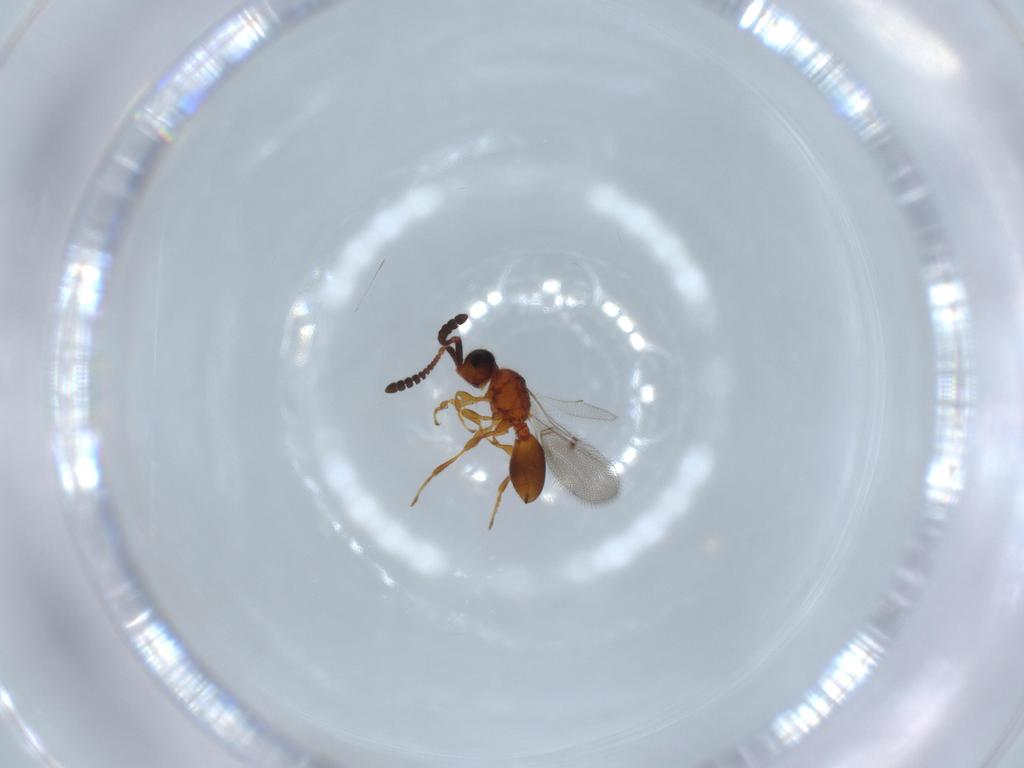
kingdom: Animalia
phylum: Arthropoda
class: Insecta
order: Hymenoptera
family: Diapriidae
